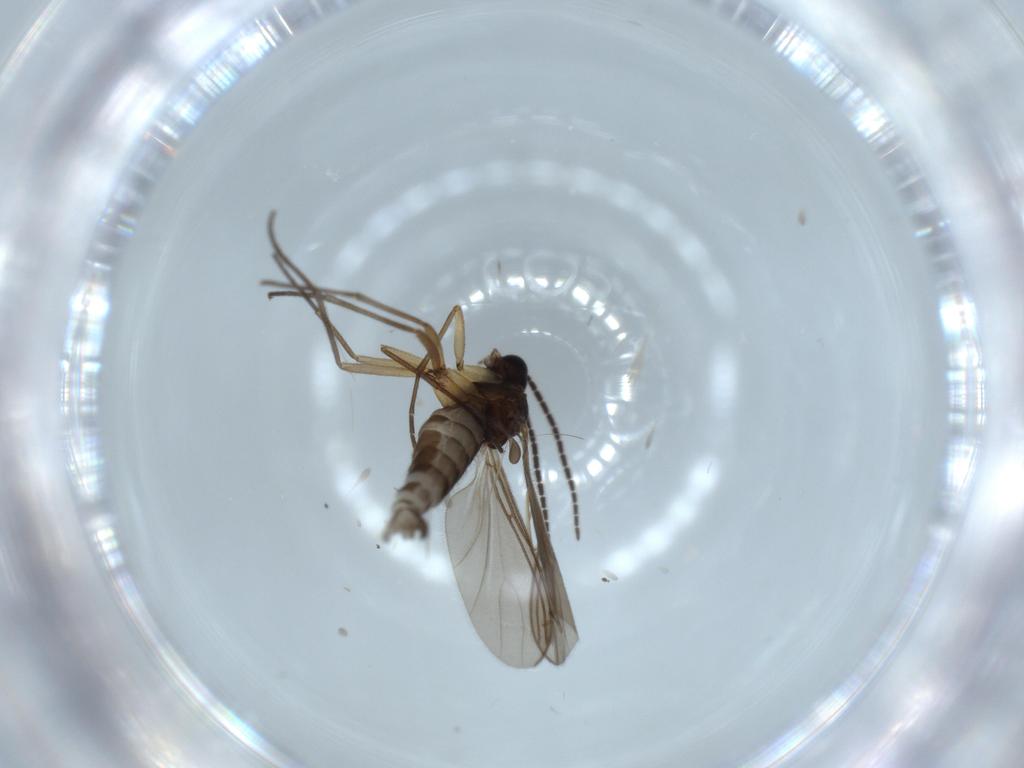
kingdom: Animalia
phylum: Arthropoda
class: Insecta
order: Diptera
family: Sciaridae
